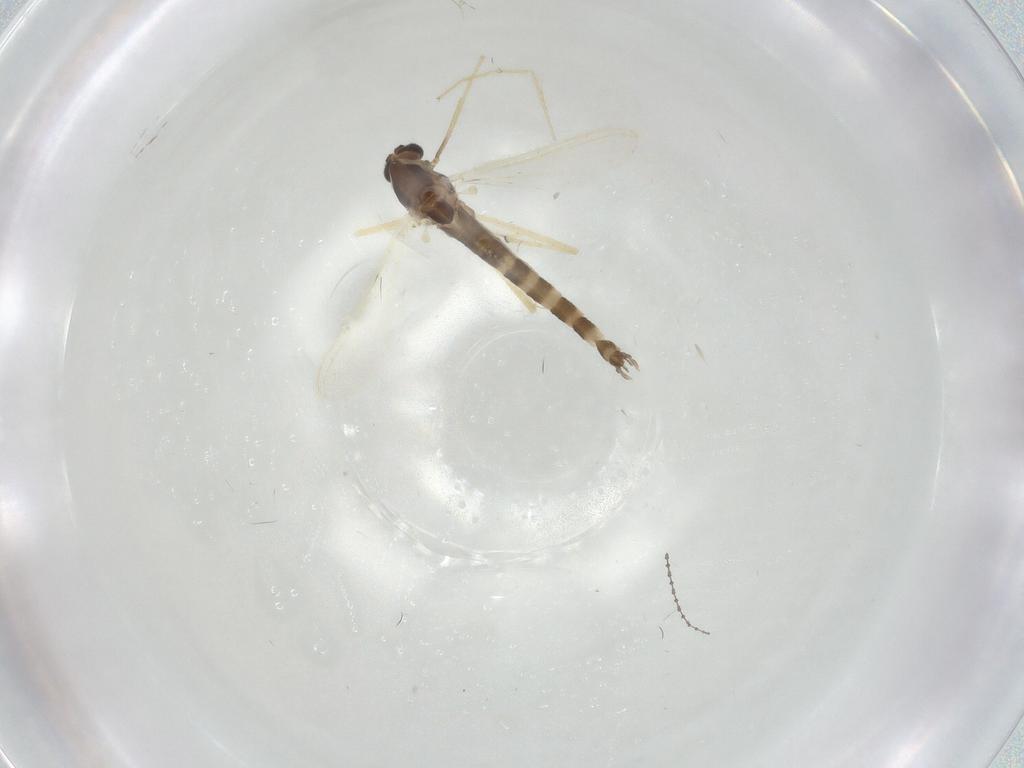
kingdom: Animalia
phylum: Arthropoda
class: Insecta
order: Diptera
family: Chironomidae
